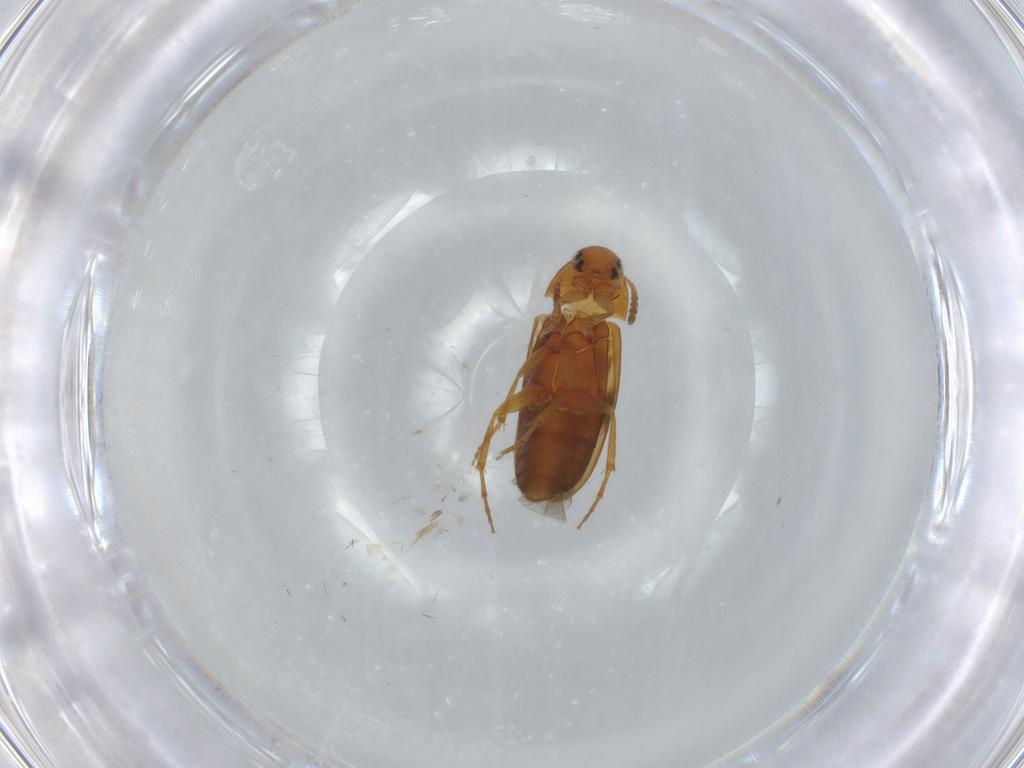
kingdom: Animalia
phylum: Arthropoda
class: Insecta
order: Coleoptera
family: Scraptiidae
